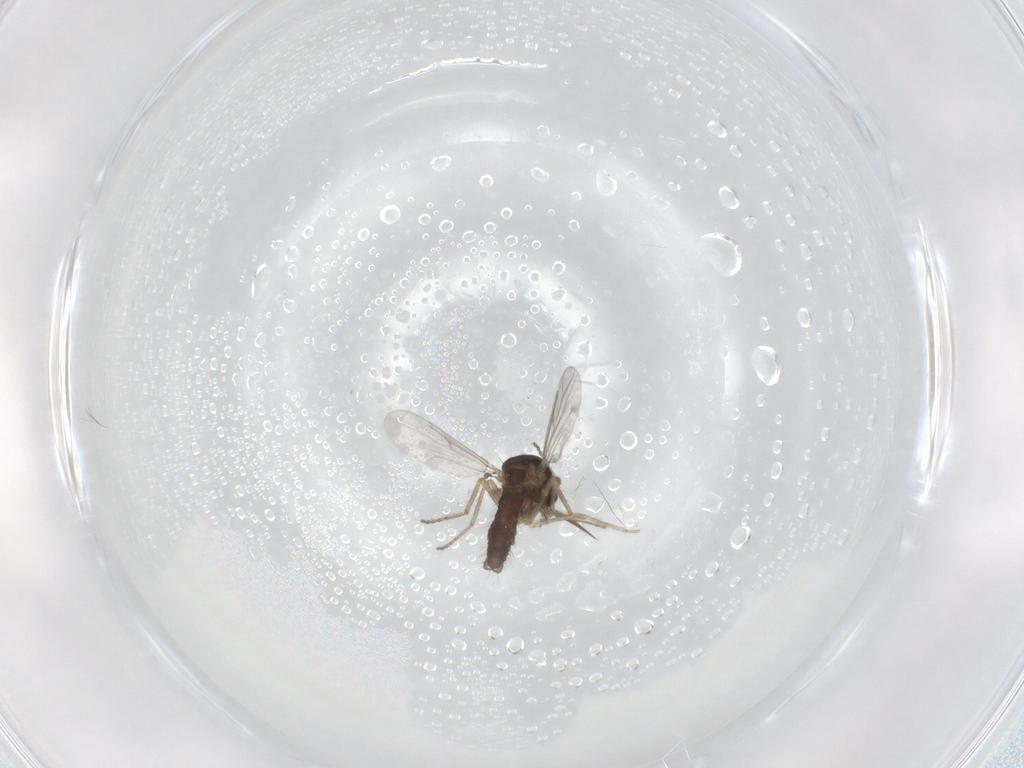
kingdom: Animalia
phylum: Arthropoda
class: Insecta
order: Diptera
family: Ceratopogonidae
